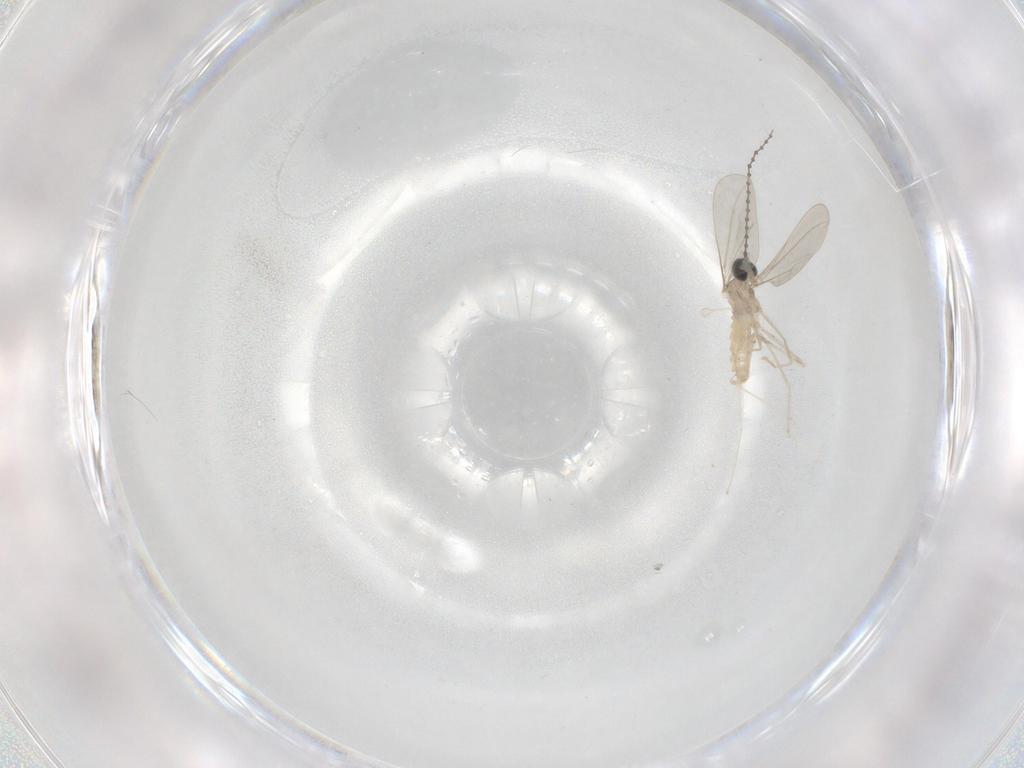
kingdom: Animalia
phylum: Arthropoda
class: Insecta
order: Diptera
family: Cecidomyiidae
